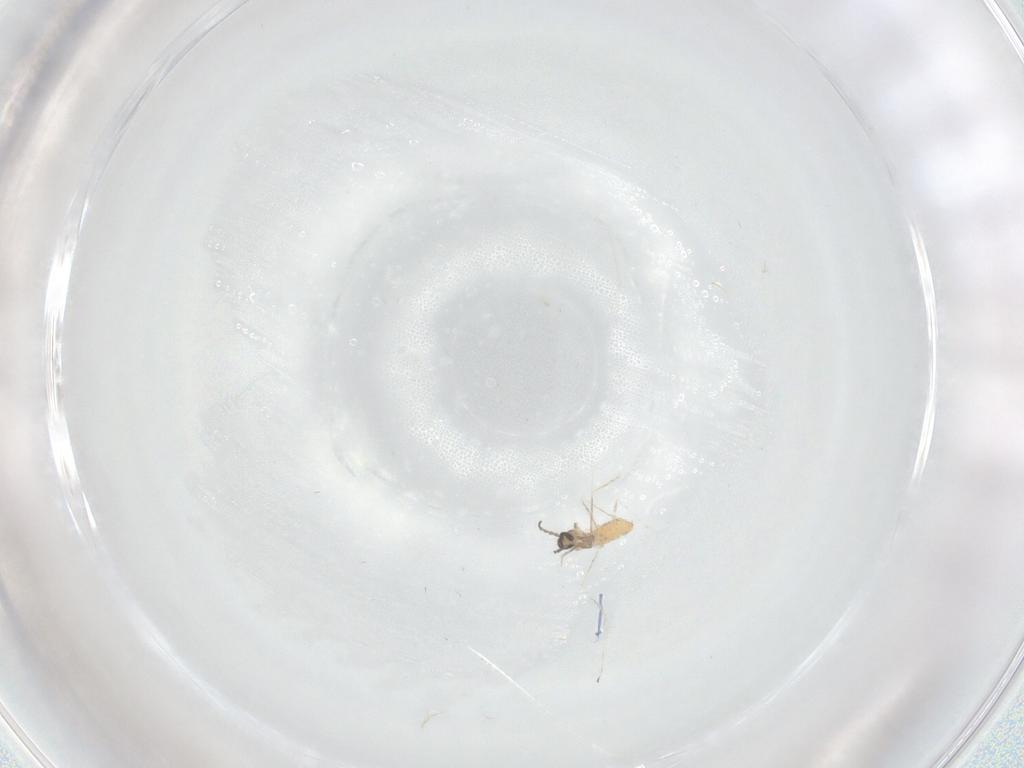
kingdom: Animalia
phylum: Arthropoda
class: Insecta
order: Diptera
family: Cecidomyiidae
